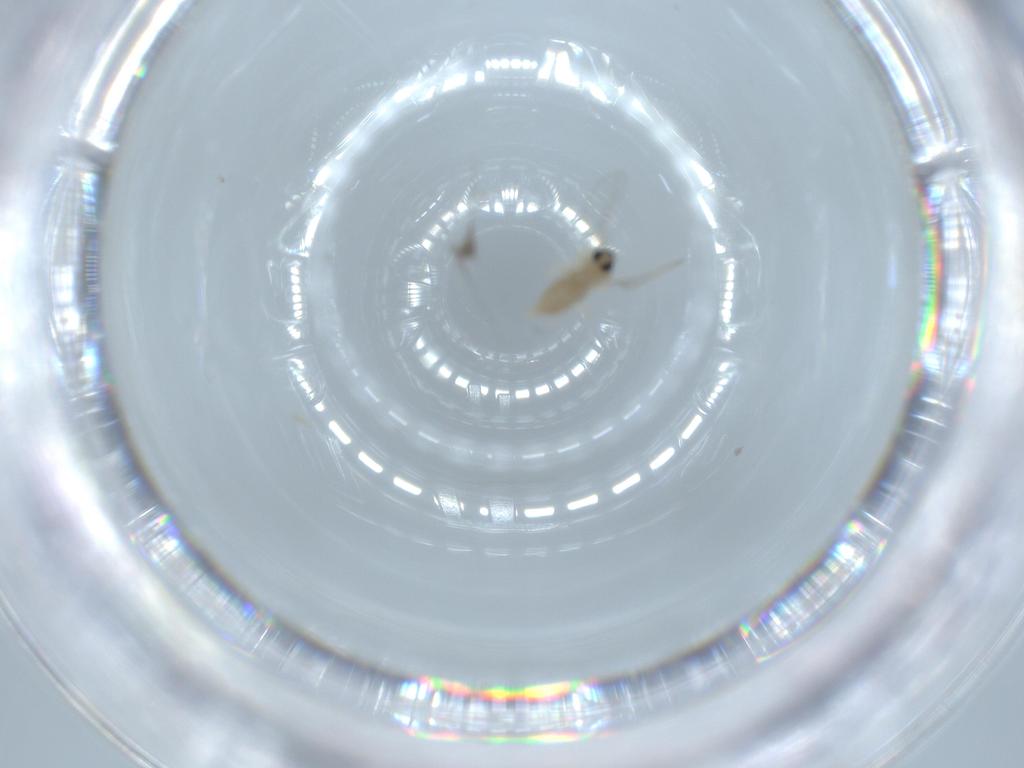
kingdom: Animalia
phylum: Arthropoda
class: Insecta
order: Diptera
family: Cecidomyiidae
